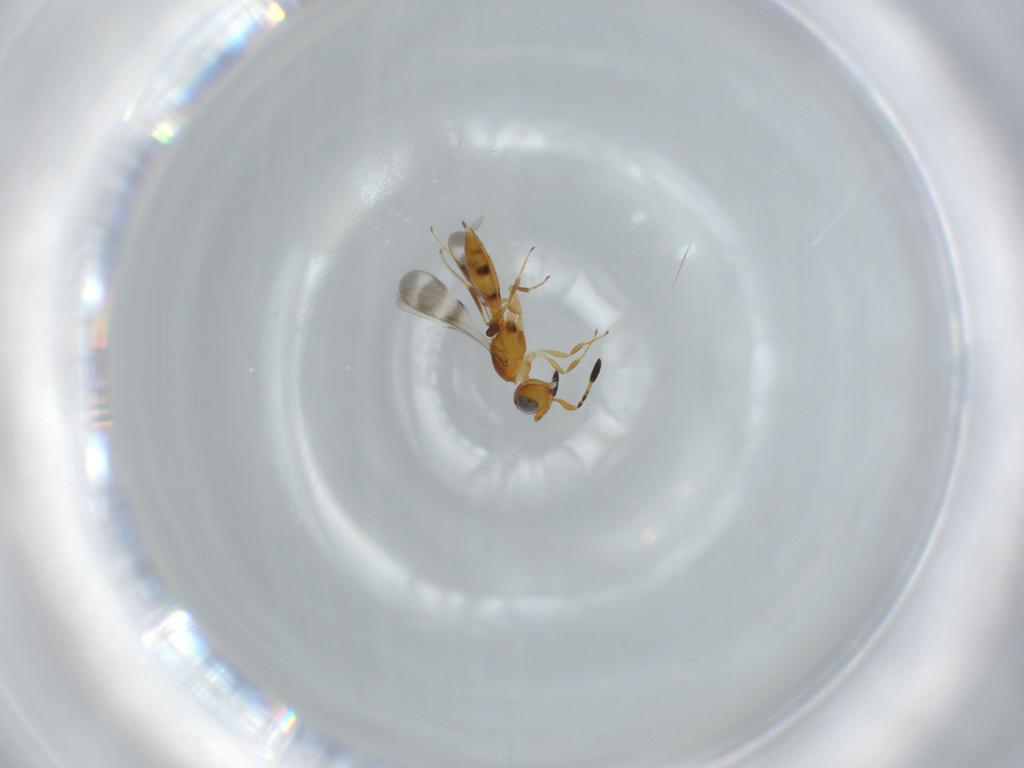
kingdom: Animalia
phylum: Arthropoda
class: Insecta
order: Hymenoptera
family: Scelionidae
